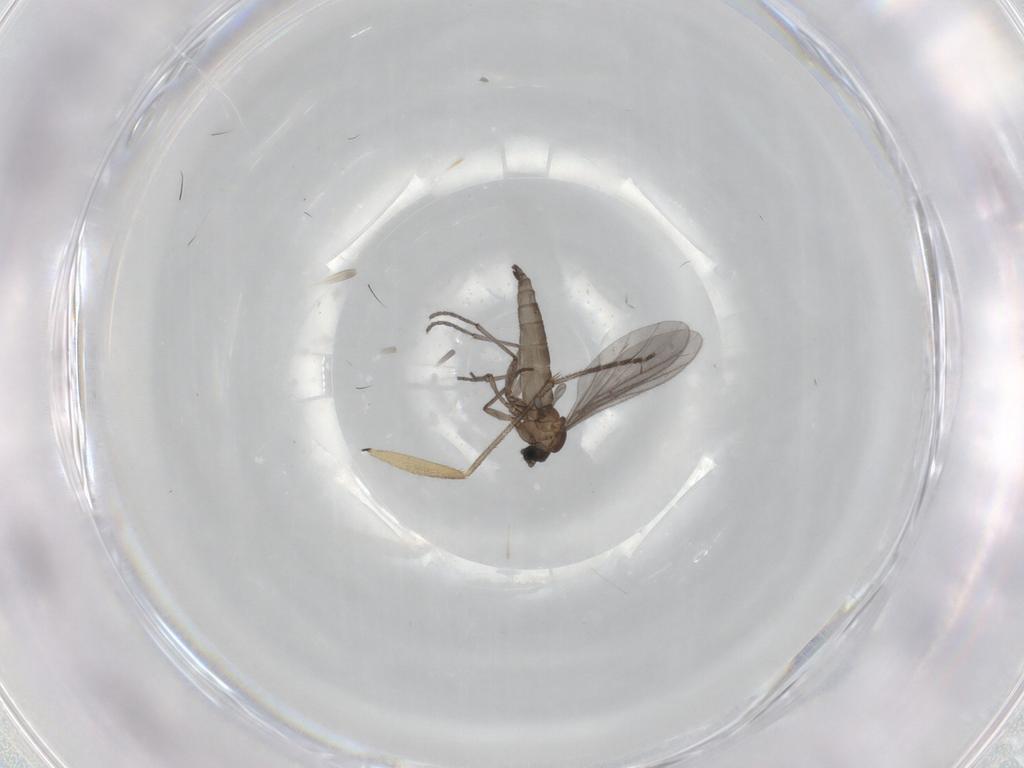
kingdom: Animalia
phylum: Arthropoda
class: Insecta
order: Diptera
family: Sciaridae
